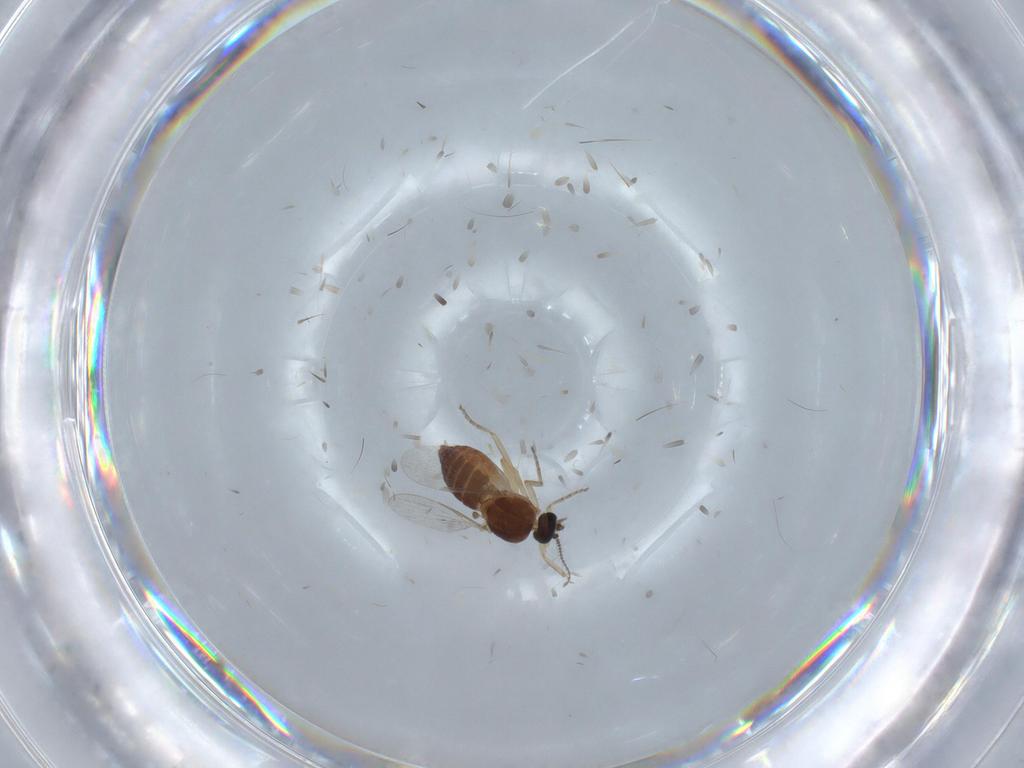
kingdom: Animalia
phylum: Arthropoda
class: Insecta
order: Diptera
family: Ceratopogonidae
